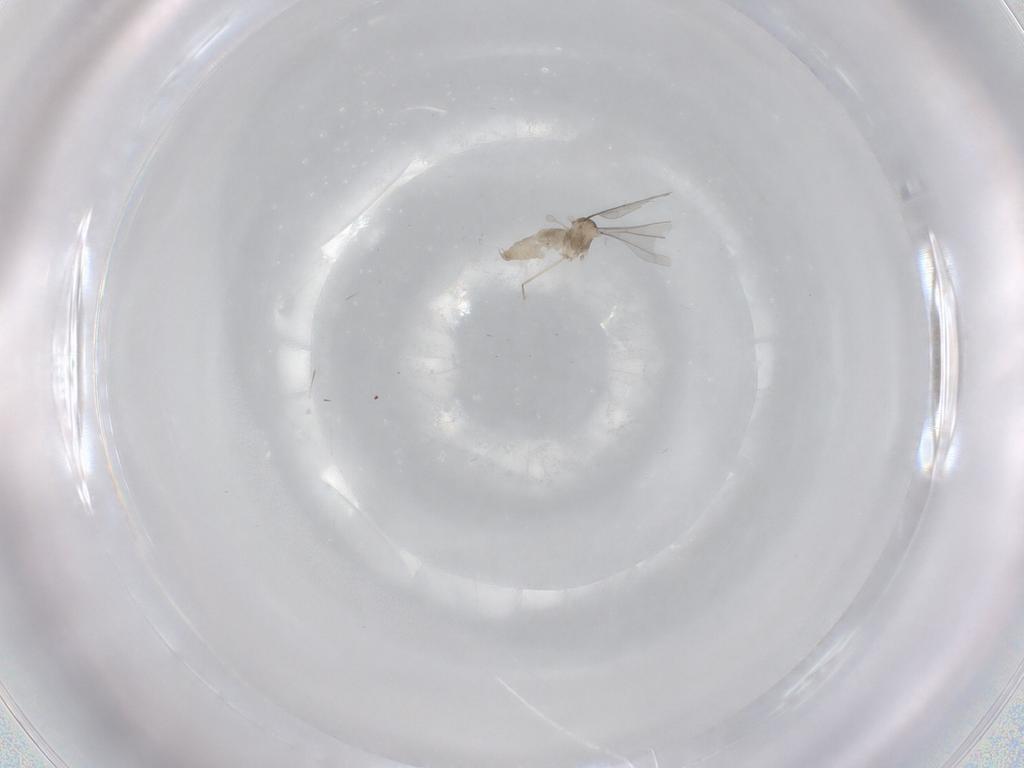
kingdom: Animalia
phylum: Arthropoda
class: Insecta
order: Diptera
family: Cecidomyiidae
